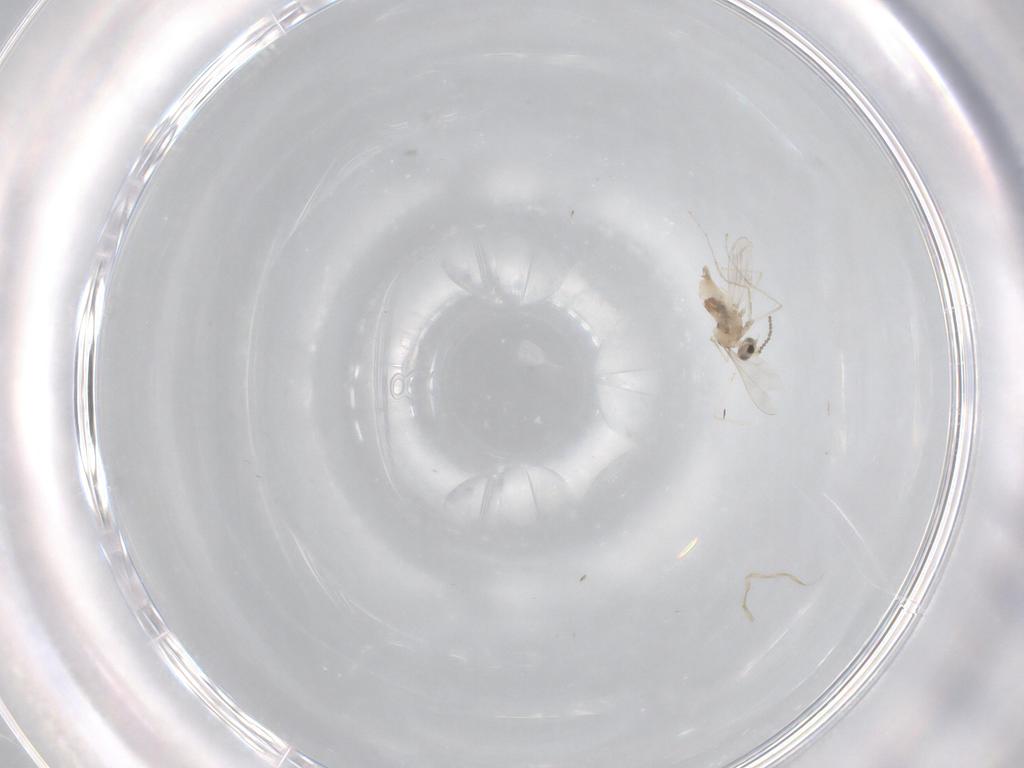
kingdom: Animalia
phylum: Arthropoda
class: Insecta
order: Diptera
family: Cecidomyiidae
